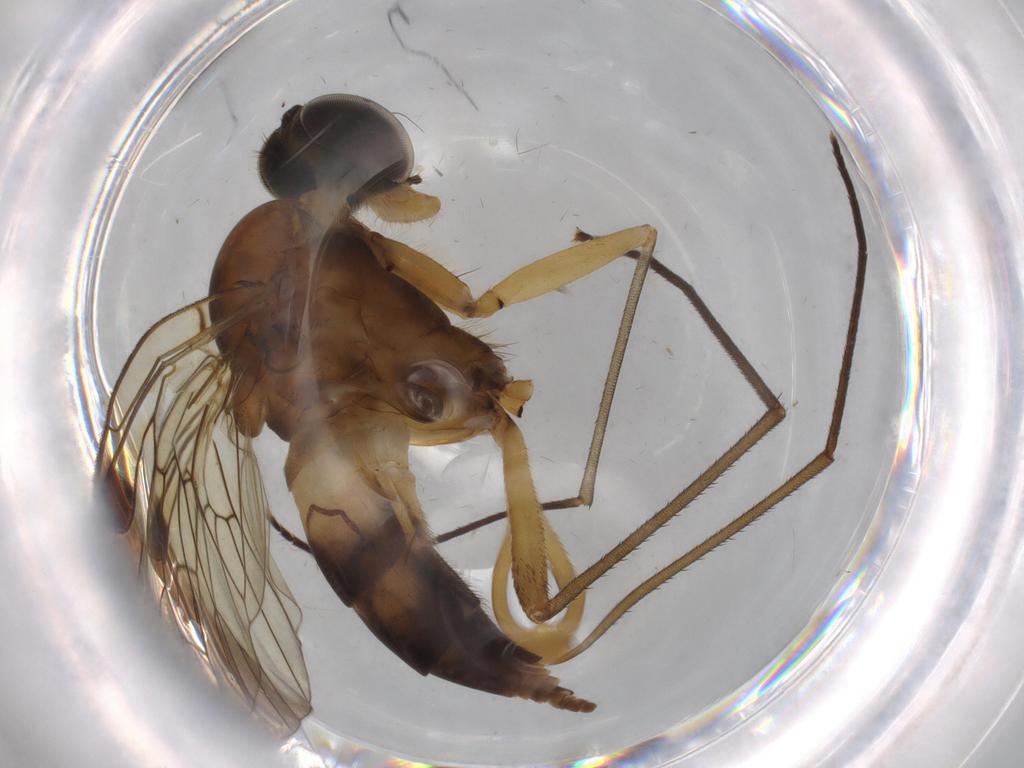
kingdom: Animalia
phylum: Arthropoda
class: Insecta
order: Diptera
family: Cecidomyiidae
